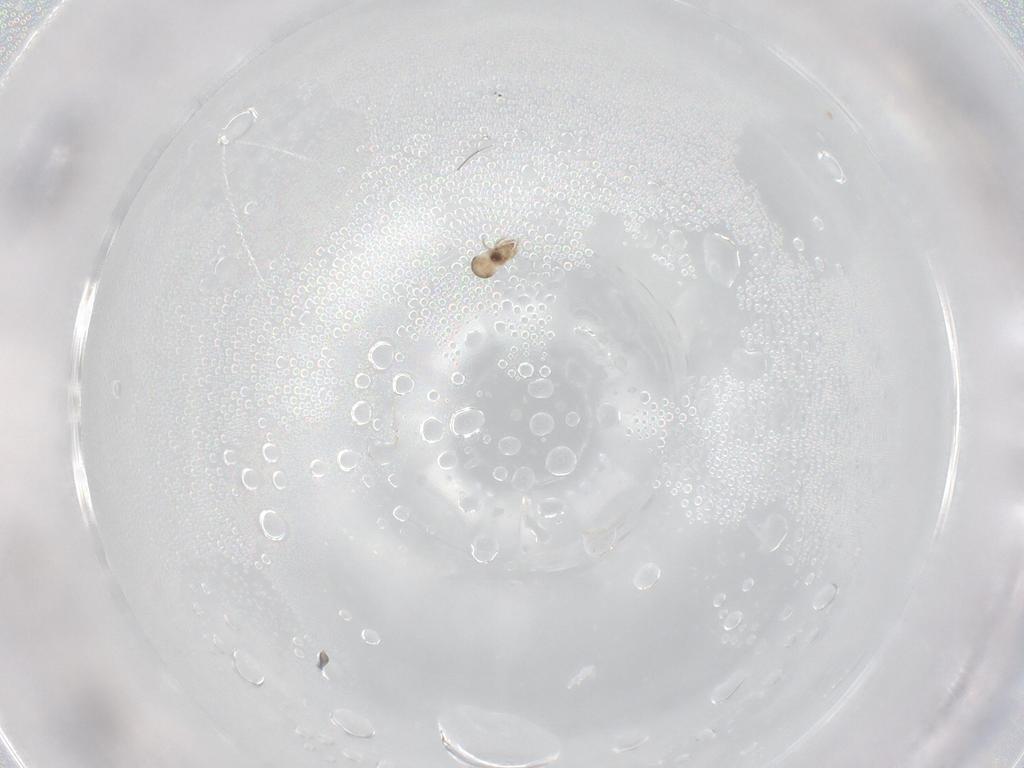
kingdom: Animalia
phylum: Arthropoda
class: Arachnida
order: Sarcoptiformes
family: Ceratozetidae
